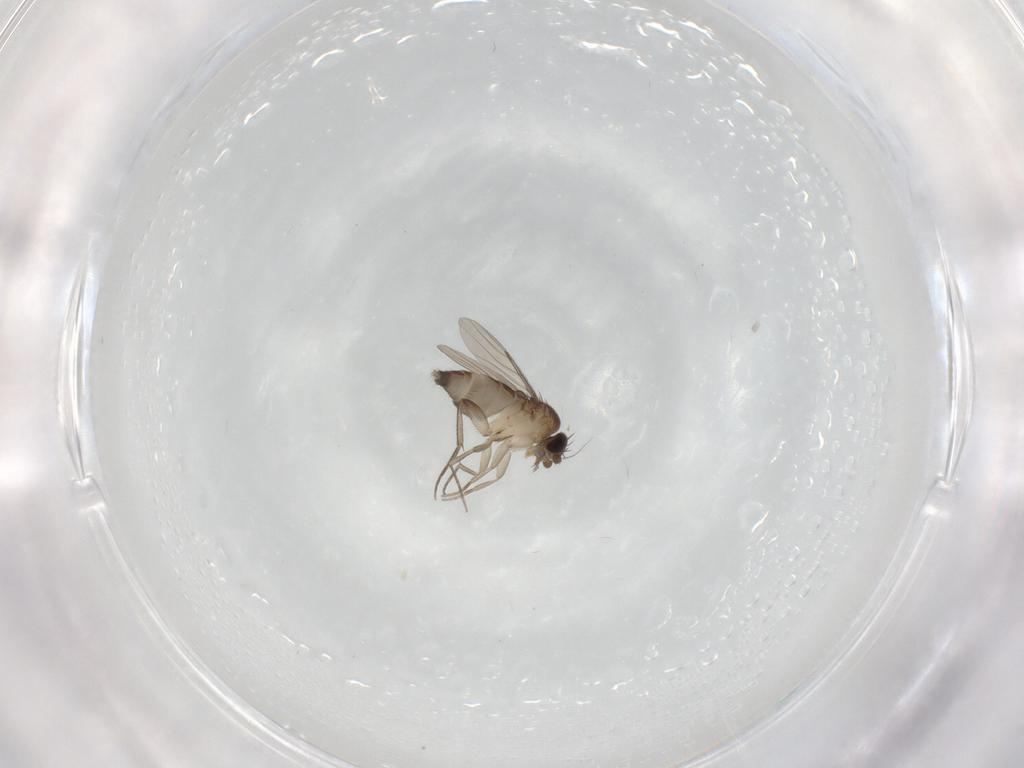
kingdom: Animalia
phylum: Arthropoda
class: Insecta
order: Diptera
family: Phoridae
